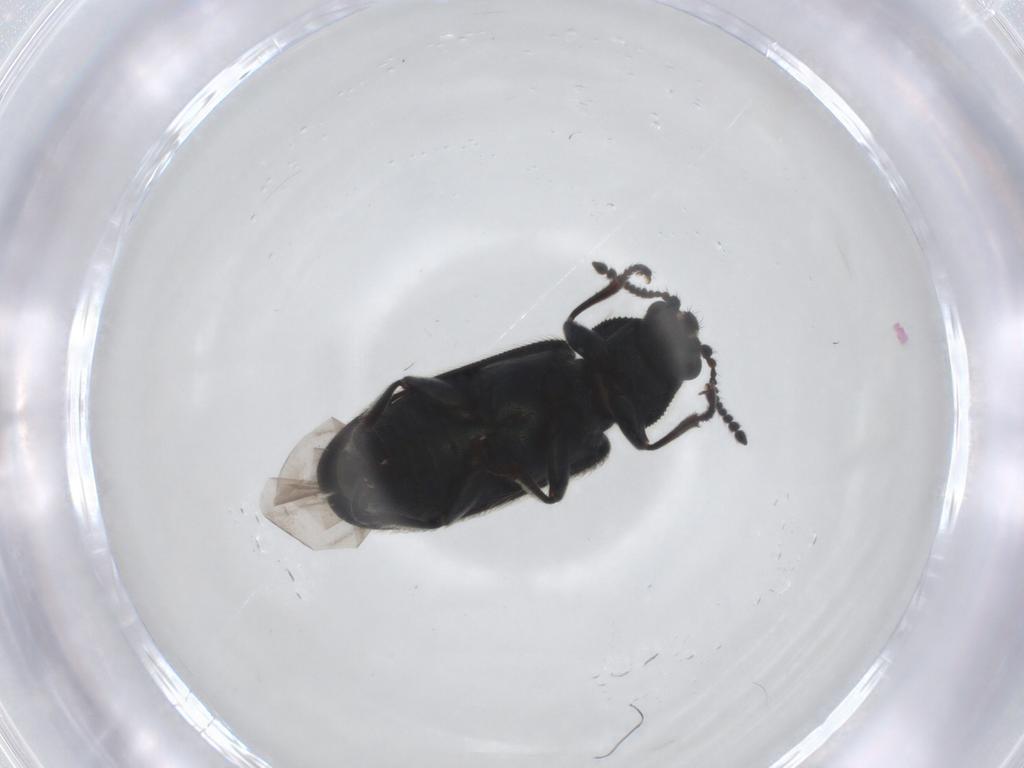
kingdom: Animalia
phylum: Arthropoda
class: Insecta
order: Coleoptera
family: Melyridae
